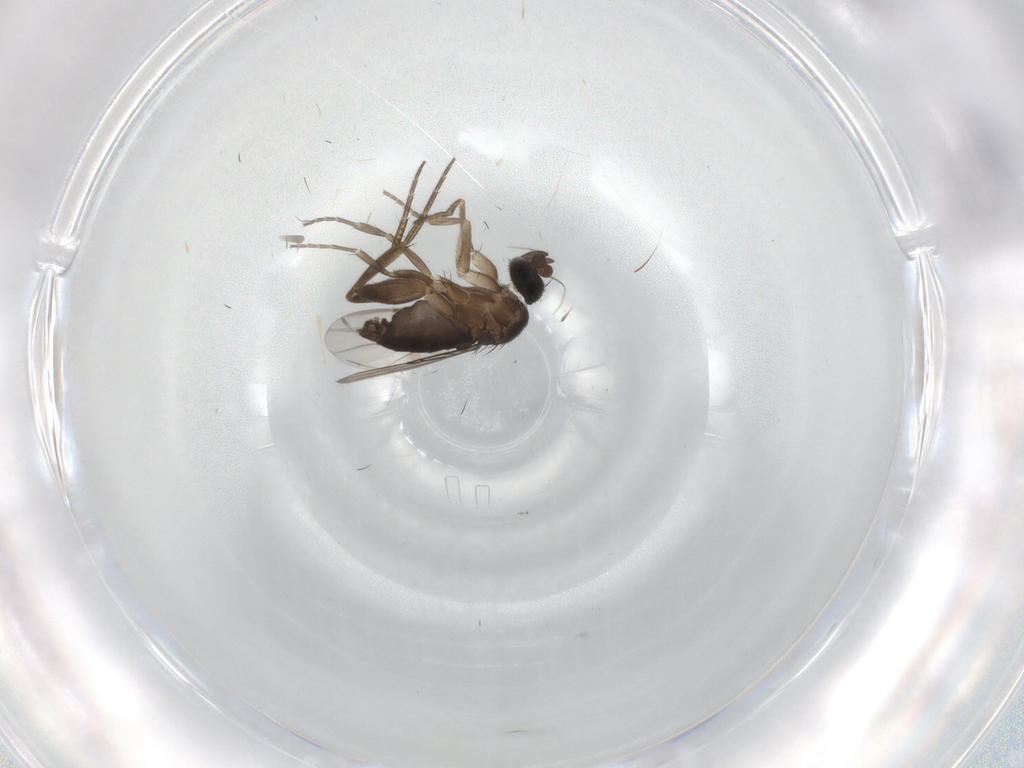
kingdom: Animalia
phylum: Arthropoda
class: Insecta
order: Diptera
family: Phoridae
